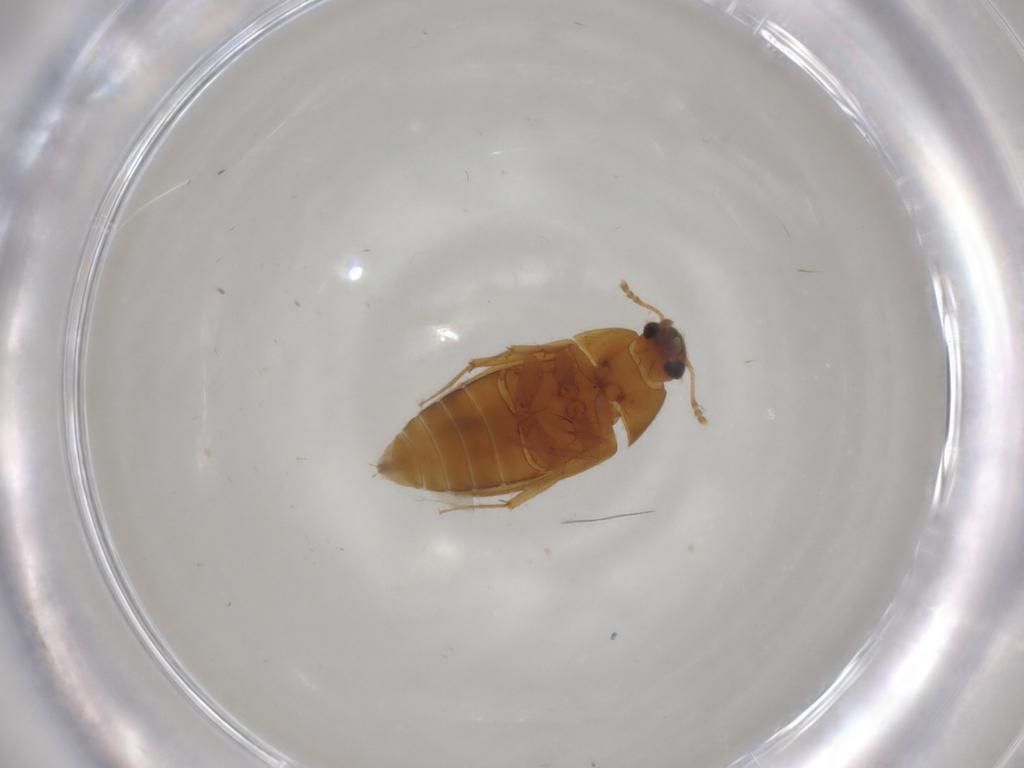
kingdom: Animalia
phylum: Arthropoda
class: Insecta
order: Coleoptera
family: Mycetophagidae
